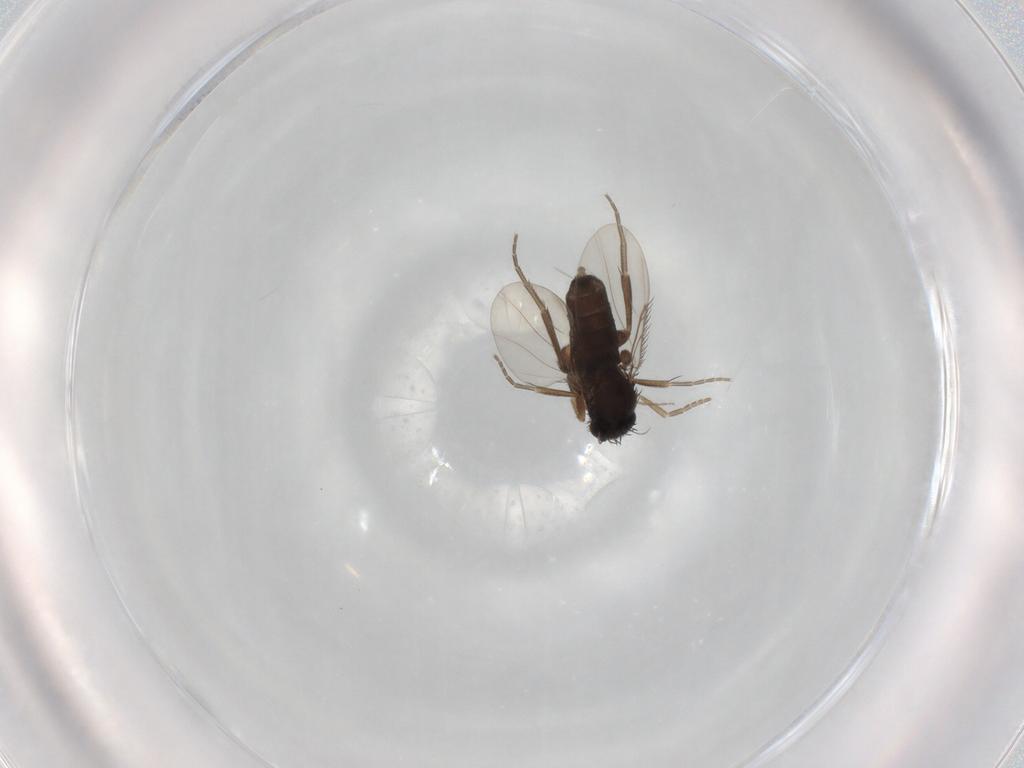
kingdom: Animalia
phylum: Arthropoda
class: Insecta
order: Diptera
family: Phoridae
